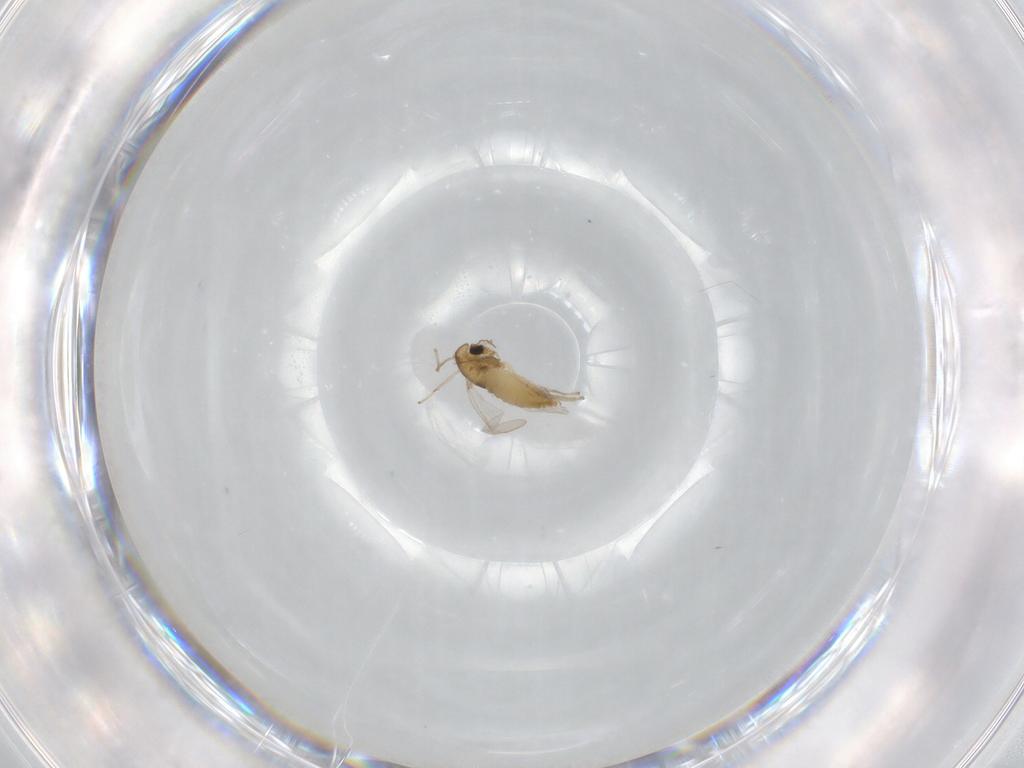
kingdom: Animalia
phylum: Arthropoda
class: Insecta
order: Diptera
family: Chironomidae
